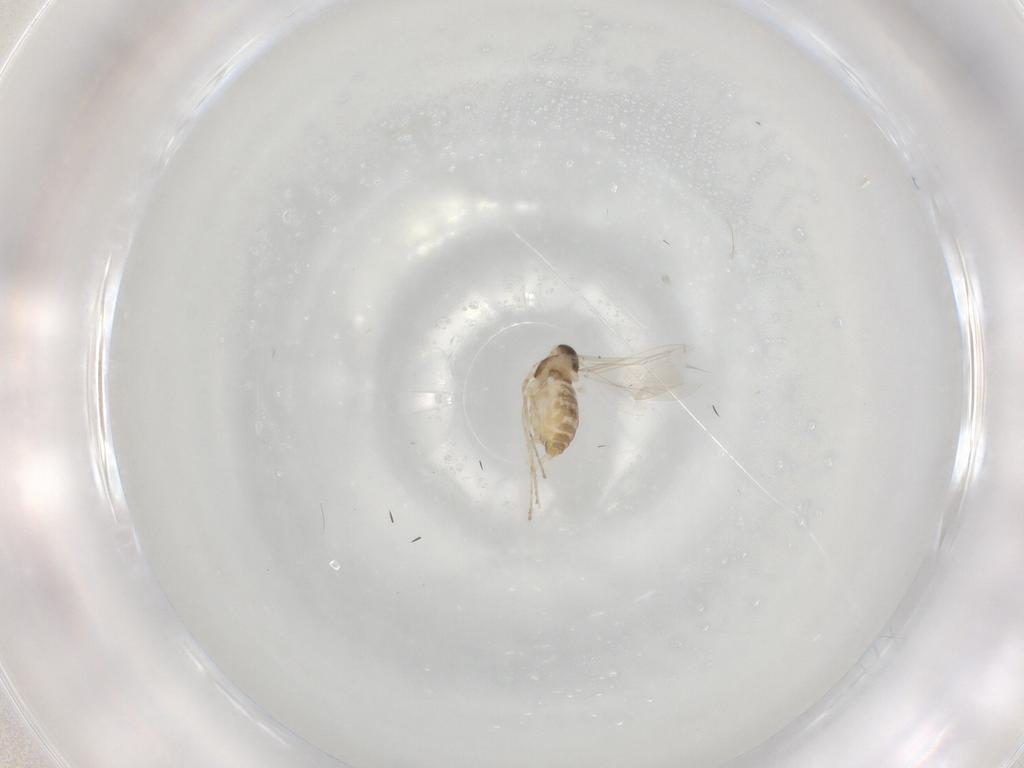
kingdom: Animalia
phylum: Arthropoda
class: Insecta
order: Diptera
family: Cecidomyiidae
